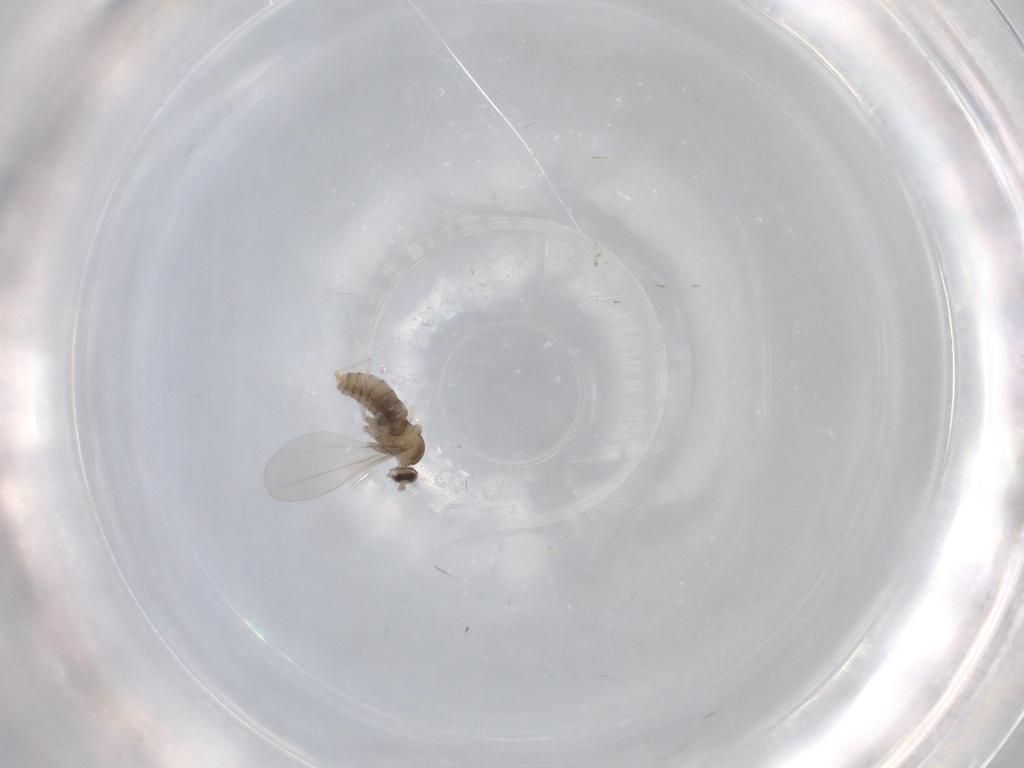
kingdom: Animalia
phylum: Arthropoda
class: Insecta
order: Diptera
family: Cecidomyiidae
